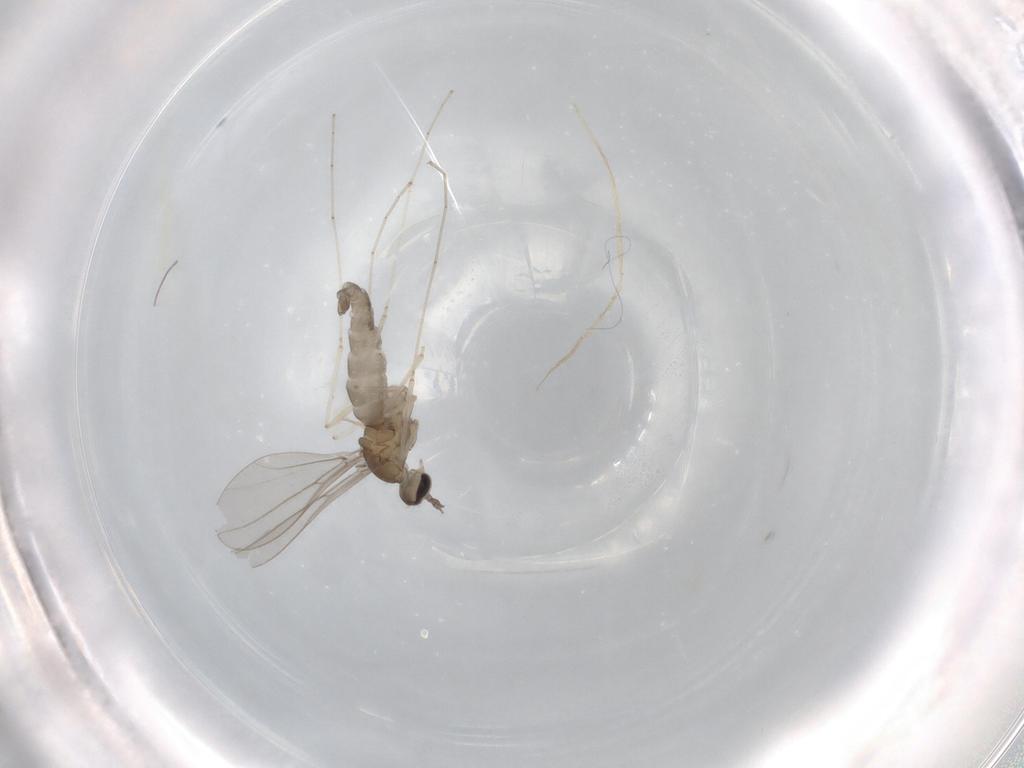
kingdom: Animalia
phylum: Arthropoda
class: Insecta
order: Diptera
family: Cecidomyiidae
